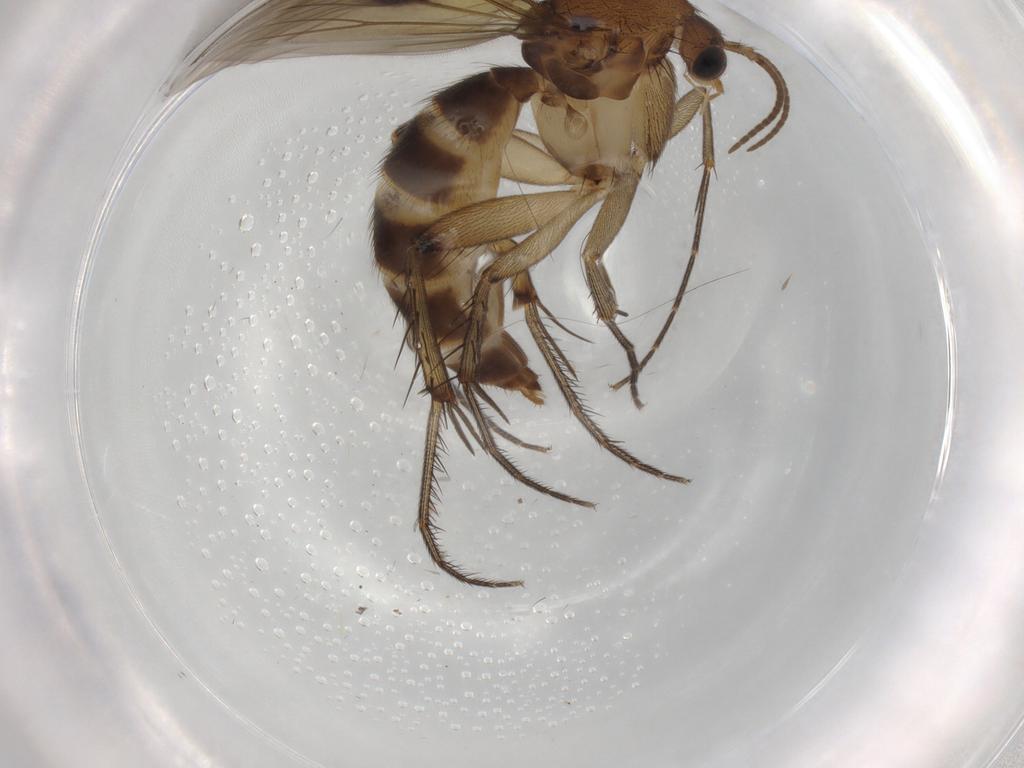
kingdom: Animalia
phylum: Arthropoda
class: Insecta
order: Diptera
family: Mycetophilidae
